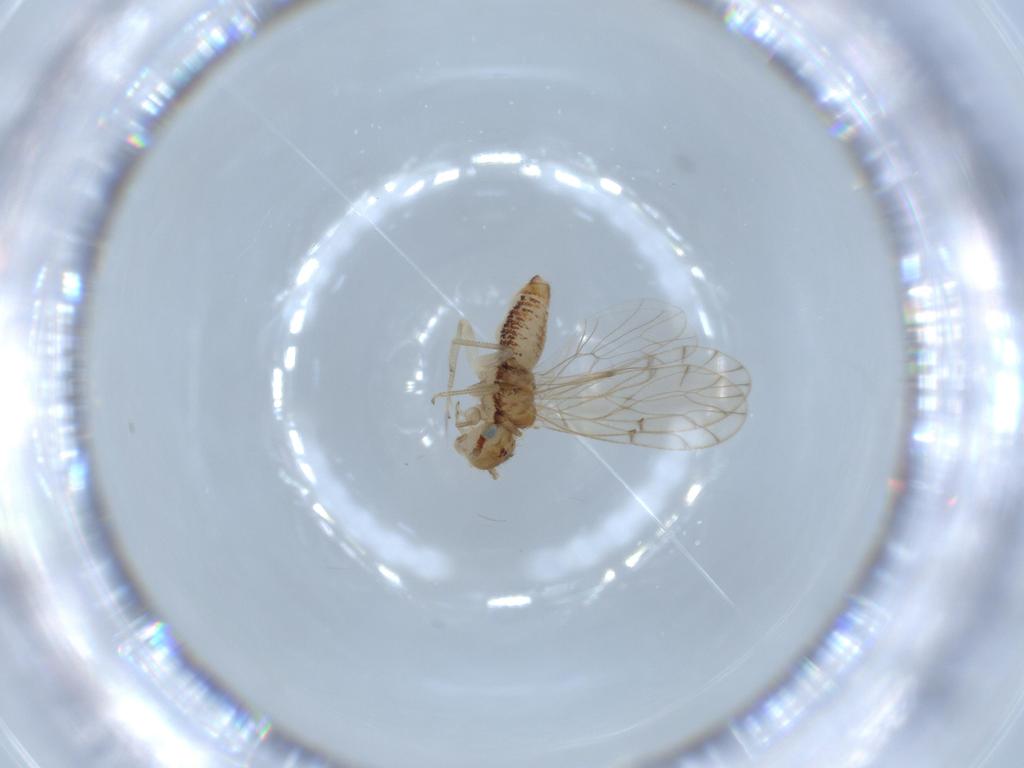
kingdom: Animalia
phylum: Arthropoda
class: Insecta
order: Psocodea
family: Ectopsocidae
